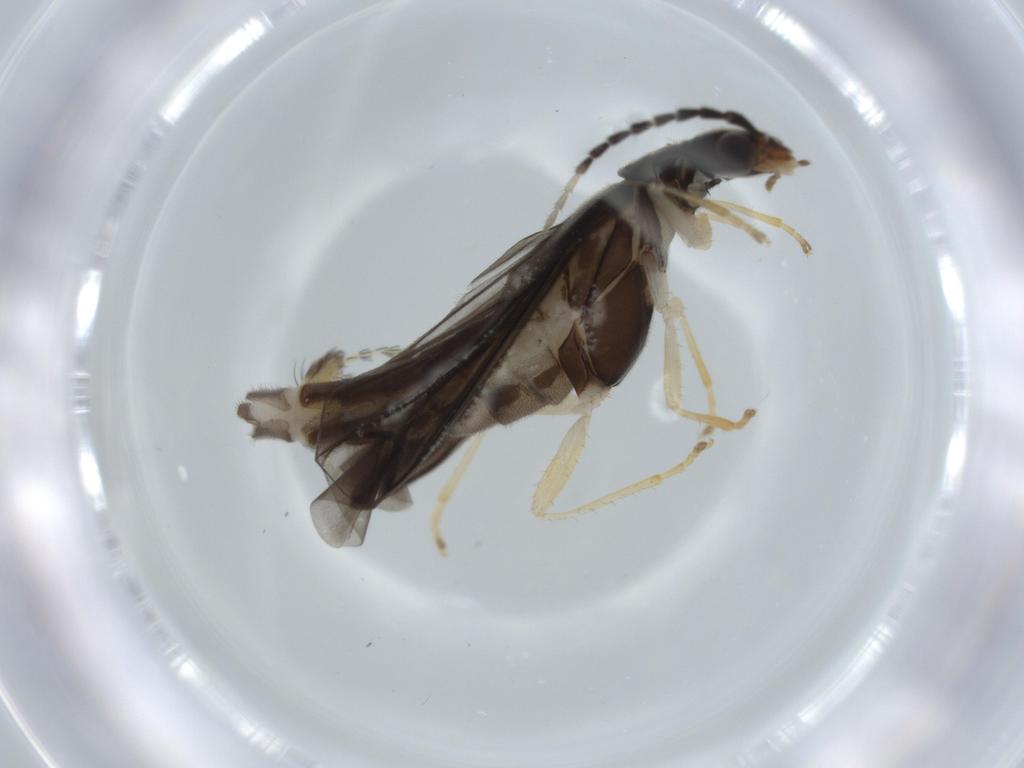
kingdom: Animalia
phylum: Arthropoda
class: Insecta
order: Coleoptera
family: Cantharidae
